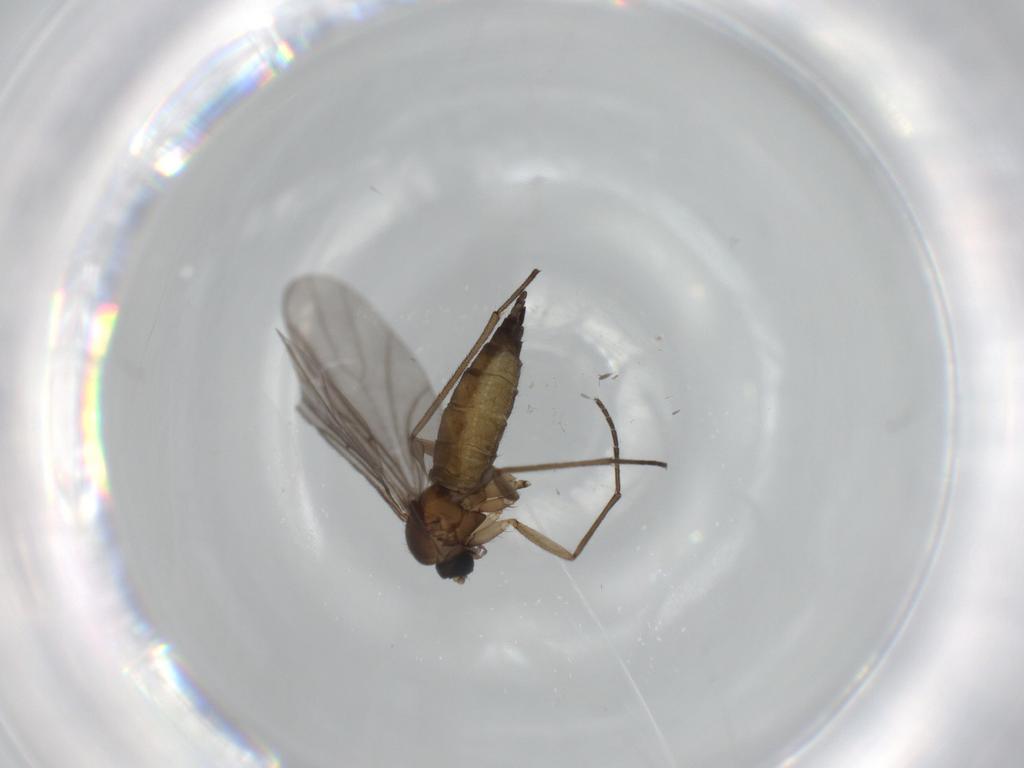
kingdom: Animalia
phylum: Arthropoda
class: Insecta
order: Diptera
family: Sciaridae
